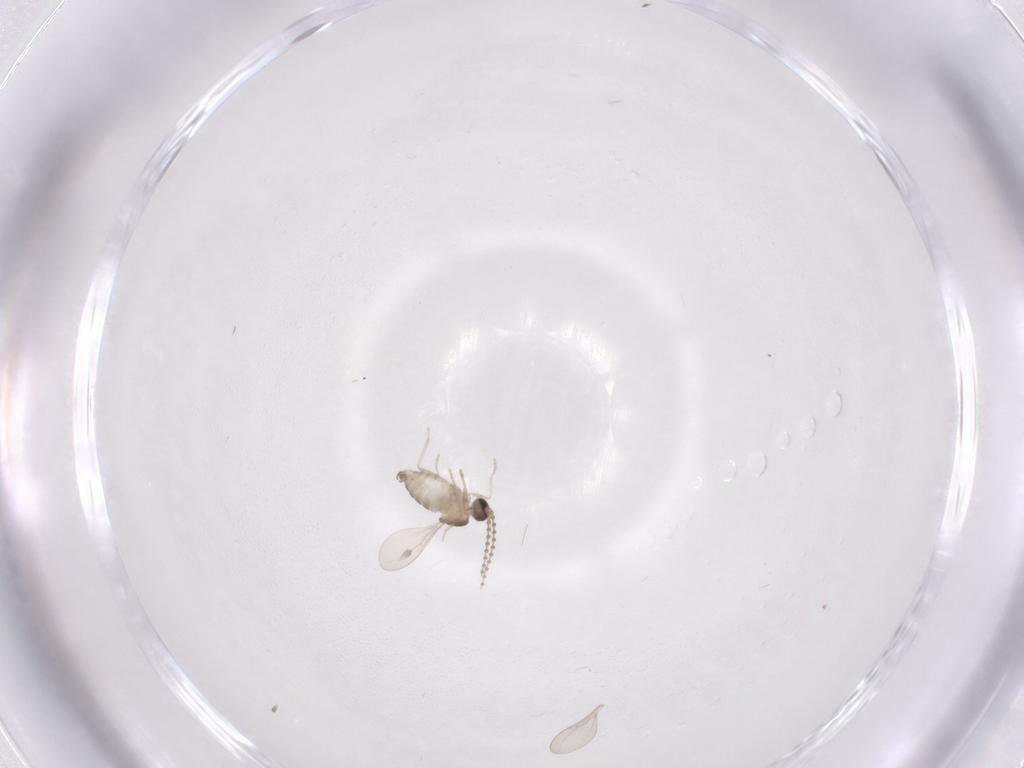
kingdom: Animalia
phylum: Arthropoda
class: Insecta
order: Diptera
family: Cecidomyiidae
